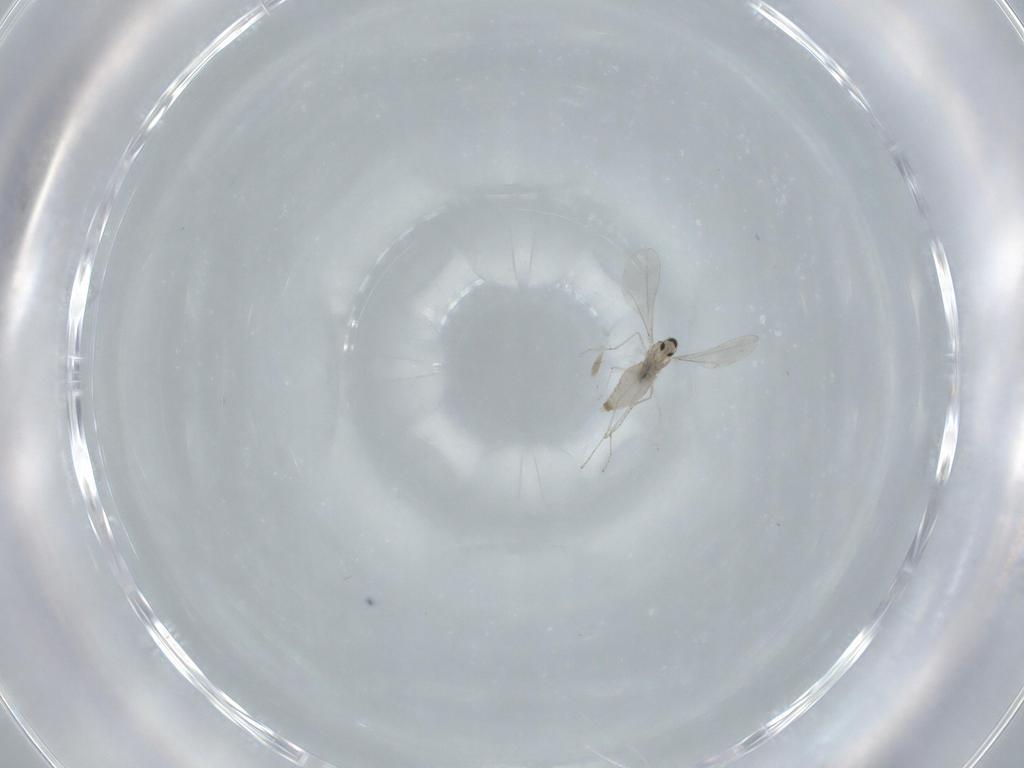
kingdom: Animalia
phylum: Arthropoda
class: Insecta
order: Diptera
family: Cecidomyiidae
